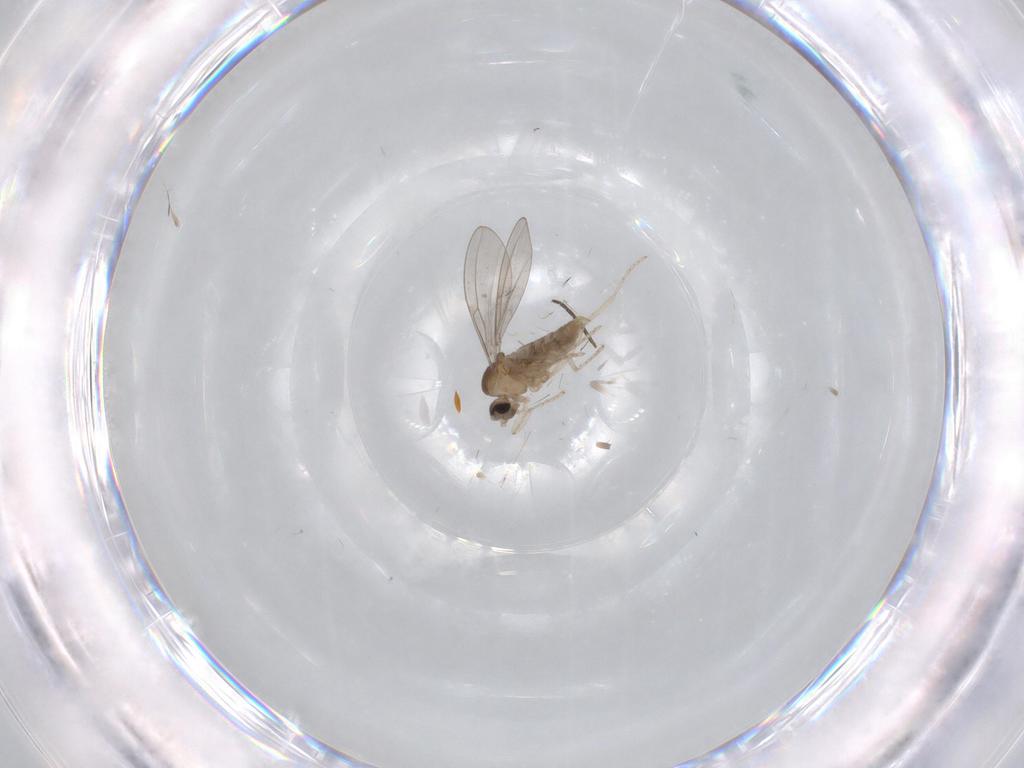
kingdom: Animalia
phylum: Arthropoda
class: Insecta
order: Diptera
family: Cecidomyiidae
